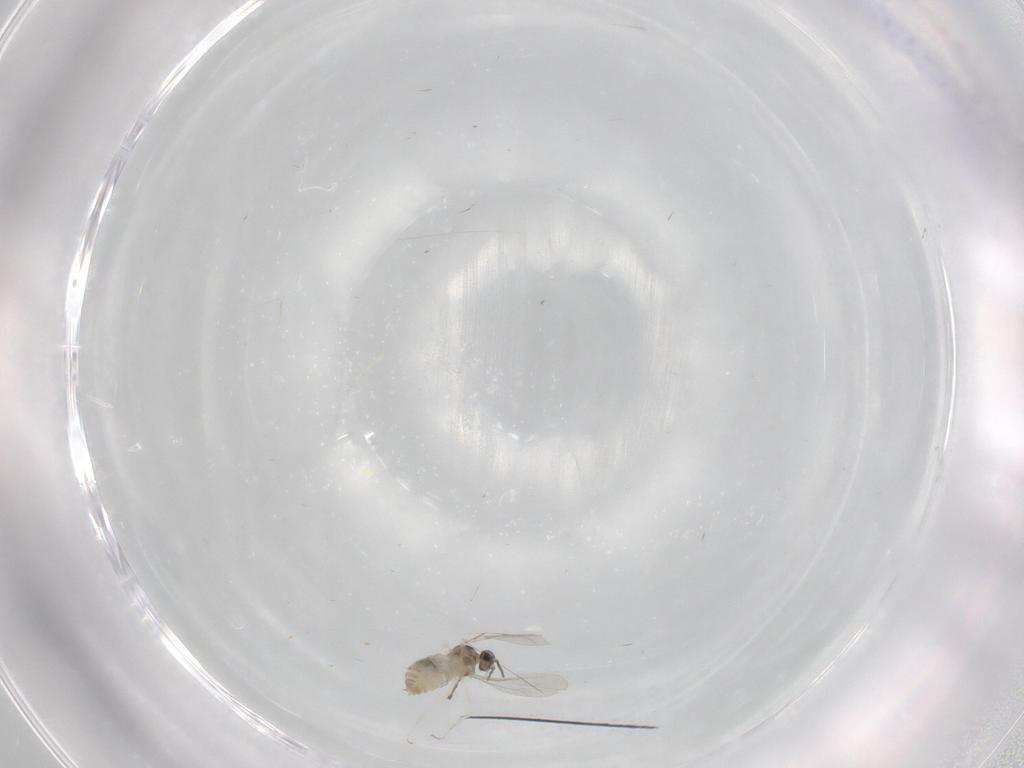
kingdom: Animalia
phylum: Arthropoda
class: Insecta
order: Diptera
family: Cecidomyiidae
